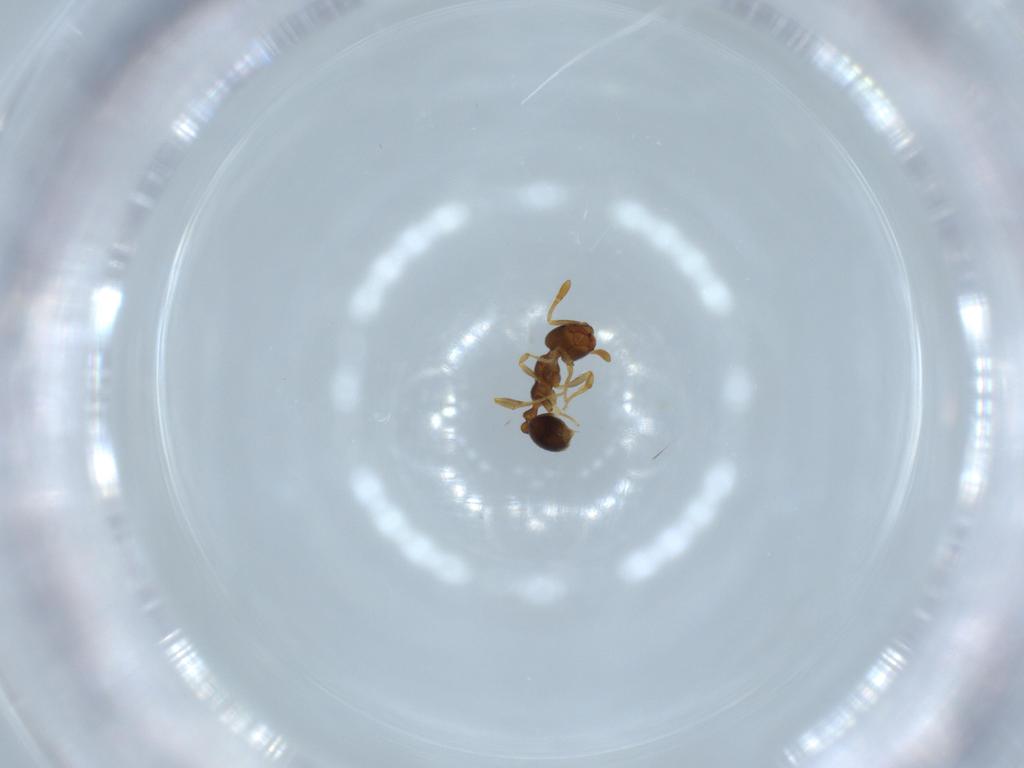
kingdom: Animalia
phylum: Arthropoda
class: Insecta
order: Hymenoptera
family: Formicidae
